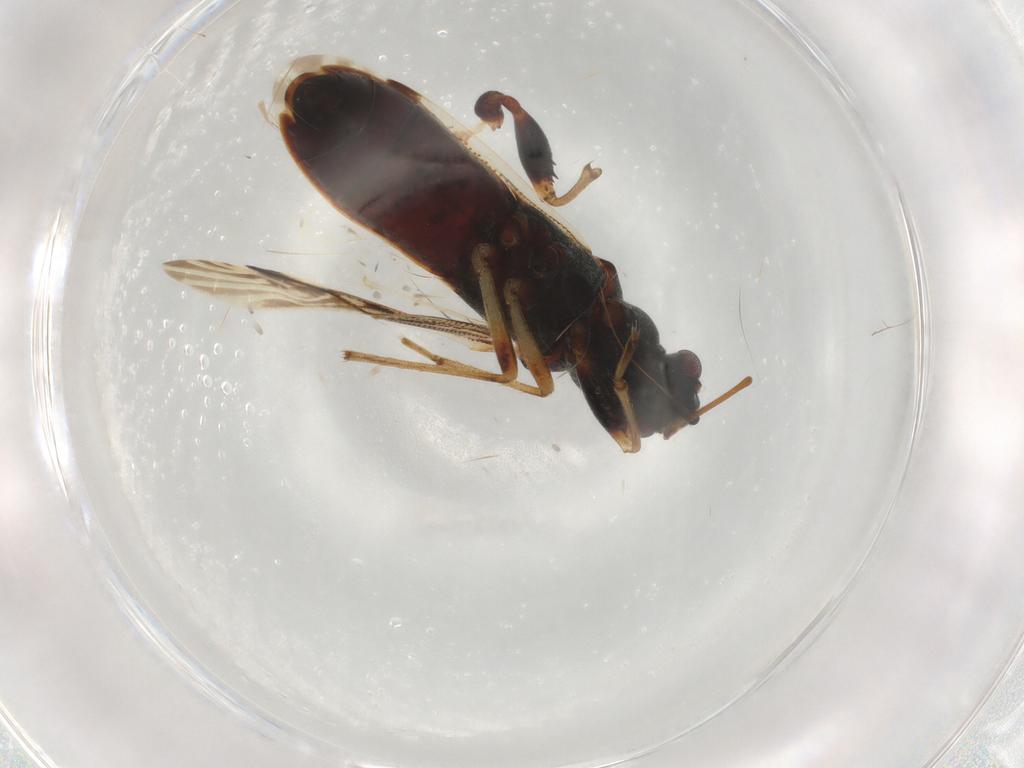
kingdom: Animalia
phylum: Arthropoda
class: Insecta
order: Hemiptera
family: Rhyparochromidae
